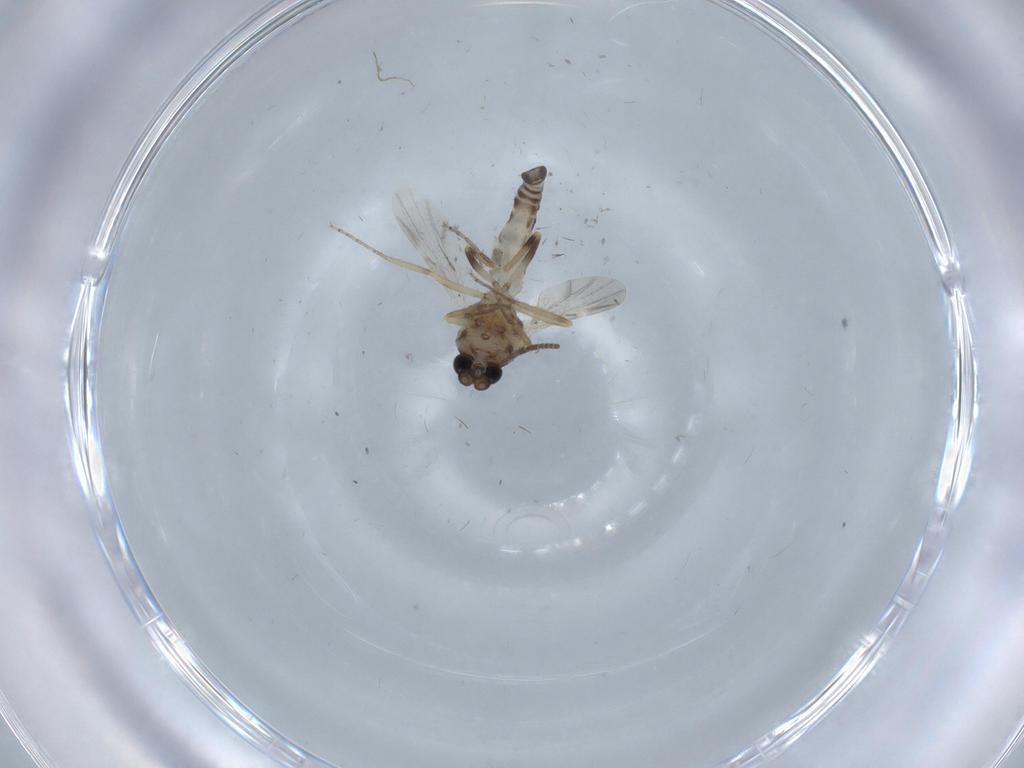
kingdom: Animalia
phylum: Arthropoda
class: Insecta
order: Diptera
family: Ceratopogonidae
